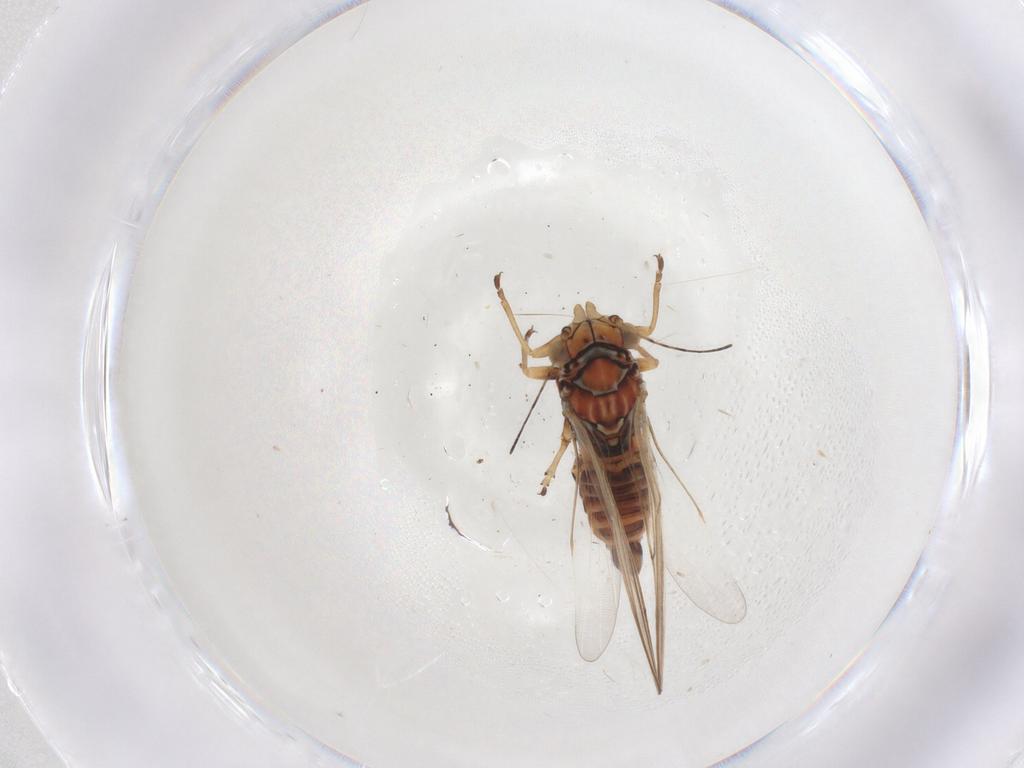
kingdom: Animalia
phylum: Arthropoda
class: Insecta
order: Hemiptera
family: Psyllidae
